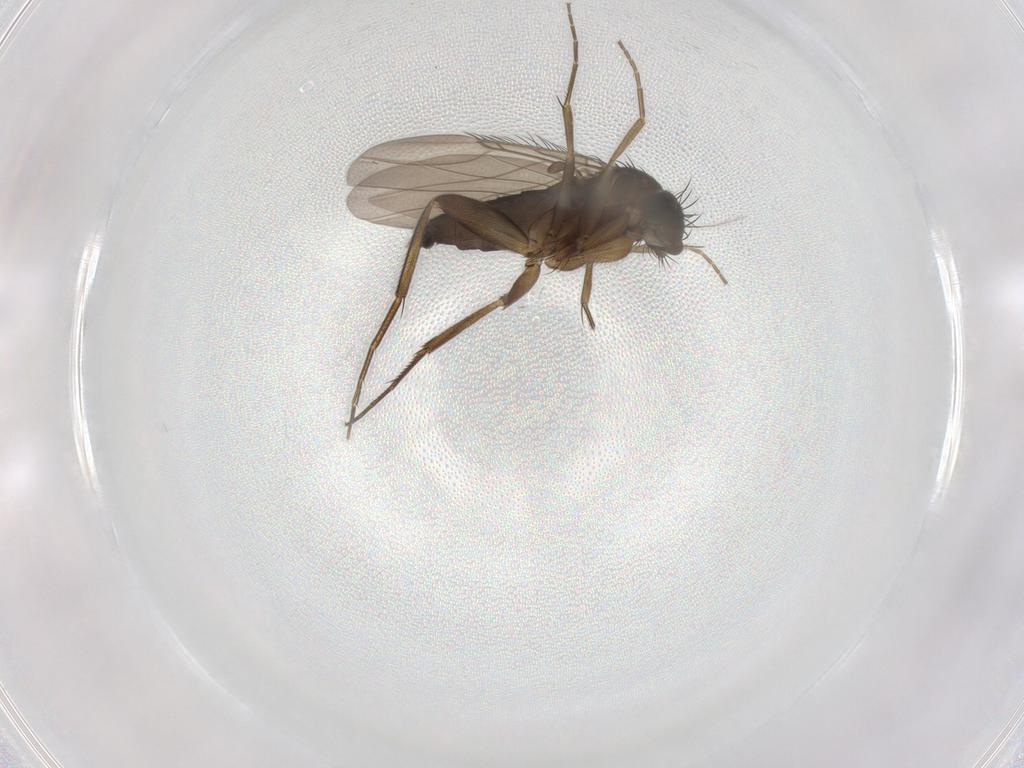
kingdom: Animalia
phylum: Arthropoda
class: Insecta
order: Diptera
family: Phoridae
